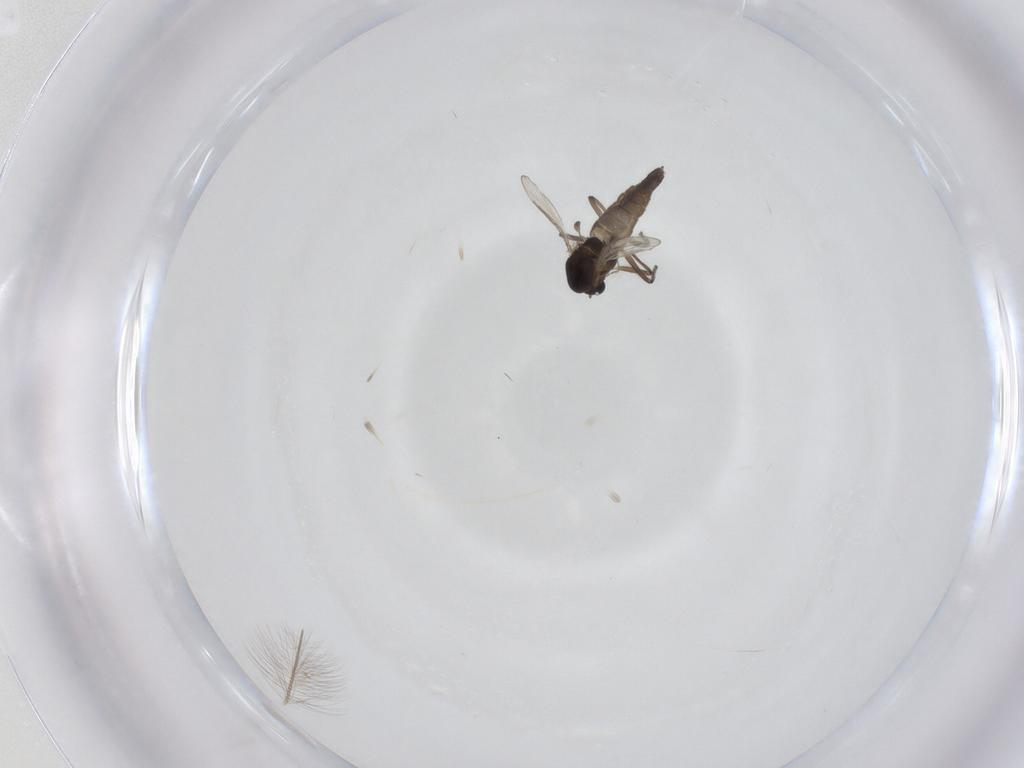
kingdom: Animalia
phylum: Arthropoda
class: Insecta
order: Diptera
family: Chironomidae
